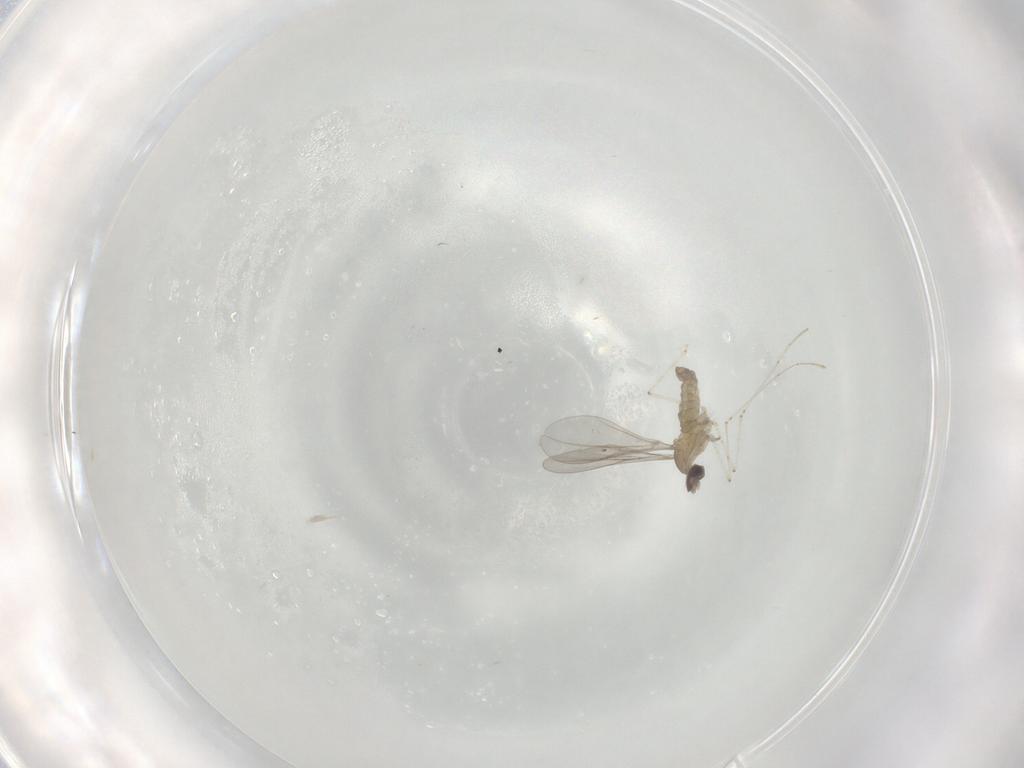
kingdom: Animalia
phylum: Arthropoda
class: Insecta
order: Diptera
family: Cecidomyiidae
